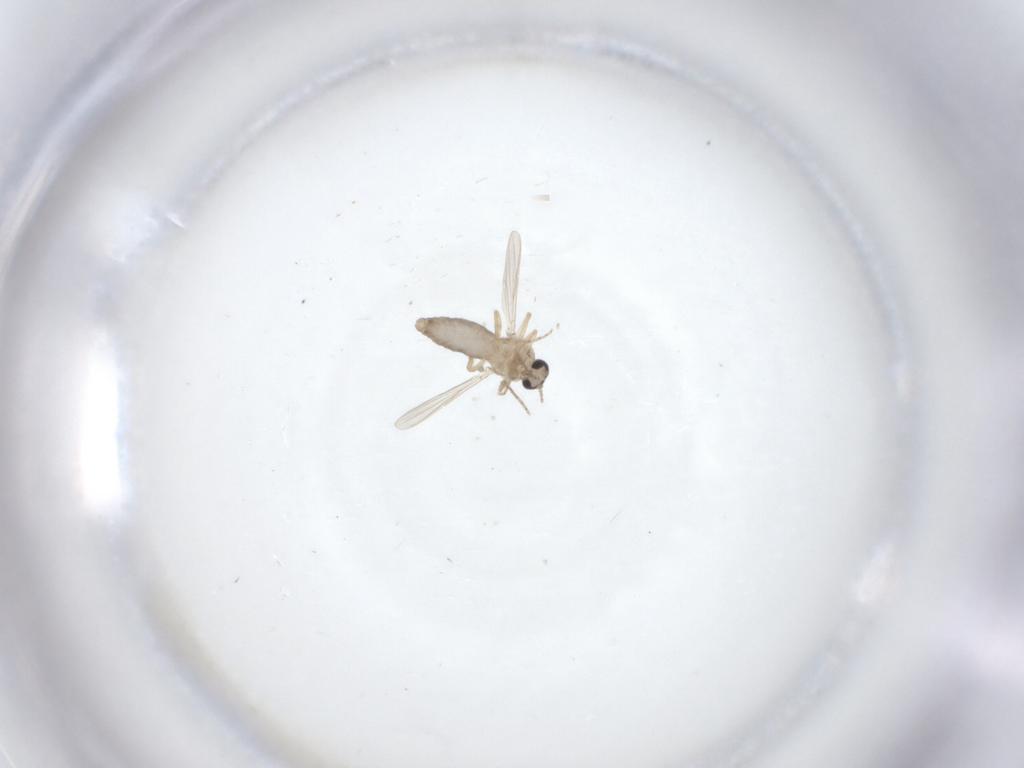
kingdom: Animalia
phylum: Arthropoda
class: Insecta
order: Diptera
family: Ceratopogonidae
